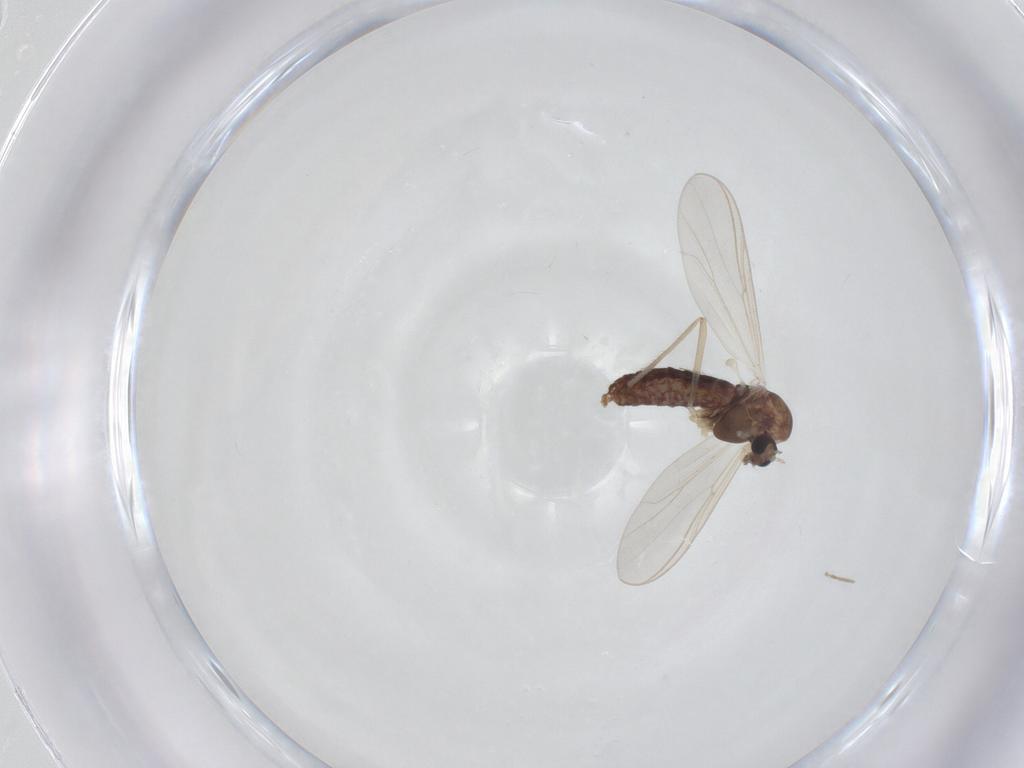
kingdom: Animalia
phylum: Arthropoda
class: Insecta
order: Diptera
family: Chironomidae
